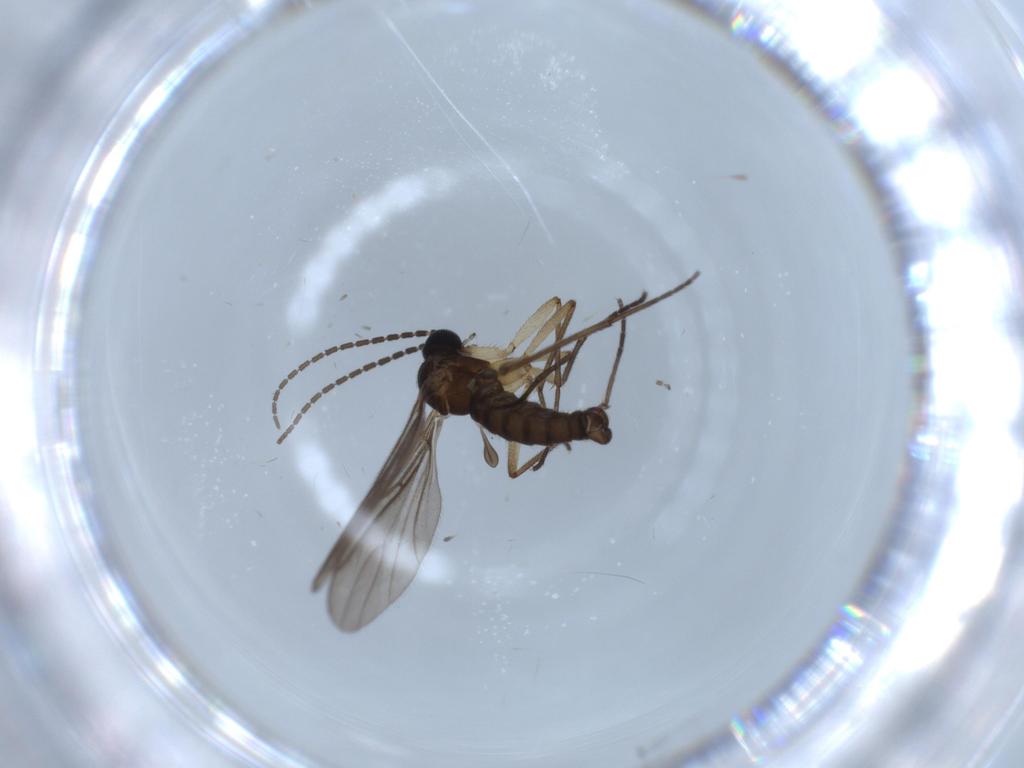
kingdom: Animalia
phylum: Arthropoda
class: Insecta
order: Diptera
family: Sciaridae
